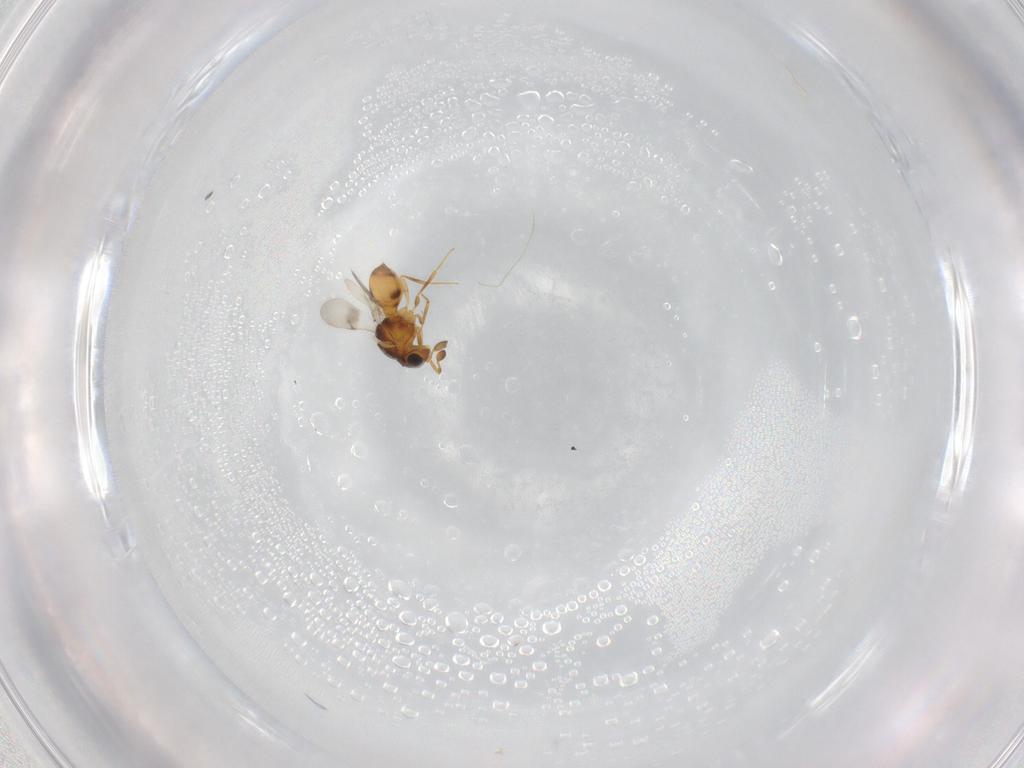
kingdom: Animalia
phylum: Arthropoda
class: Insecta
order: Hymenoptera
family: Scelionidae
